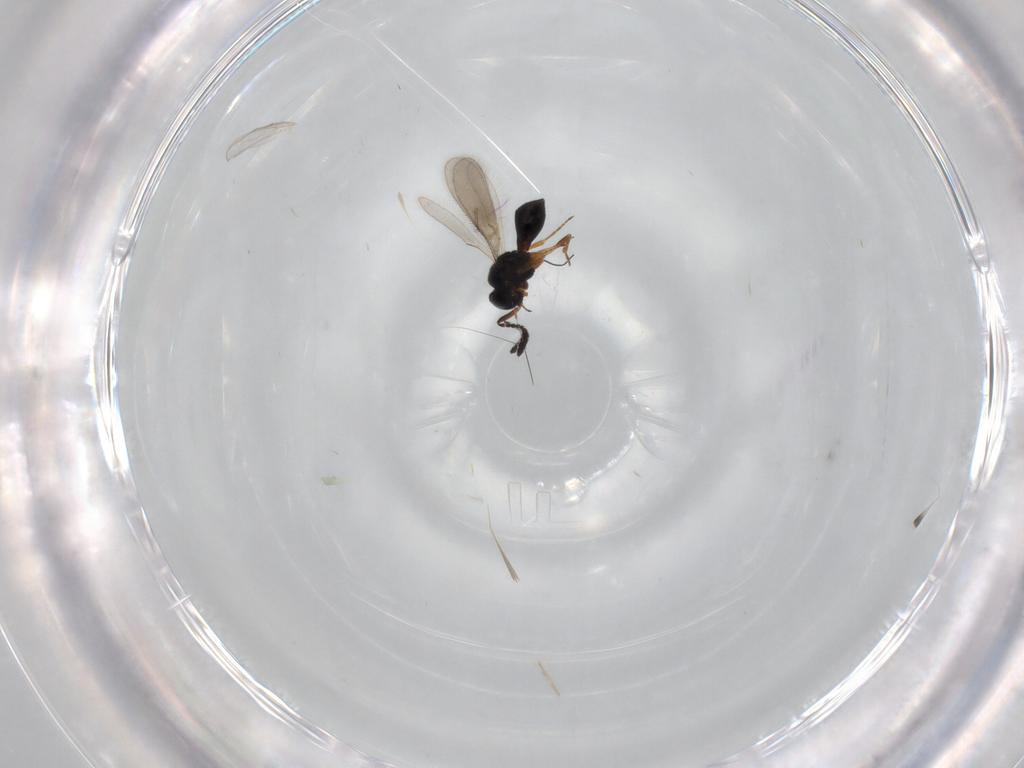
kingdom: Animalia
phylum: Arthropoda
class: Insecta
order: Hymenoptera
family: Scelionidae
